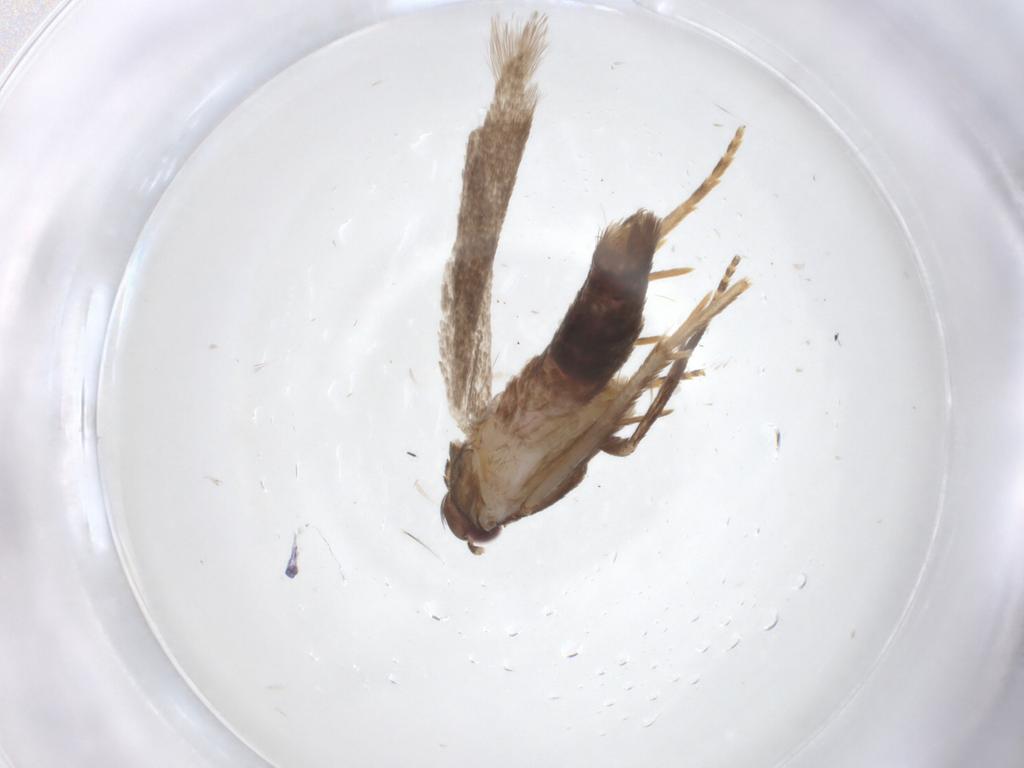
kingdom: Animalia
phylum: Arthropoda
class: Insecta
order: Lepidoptera
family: Gelechiidae
